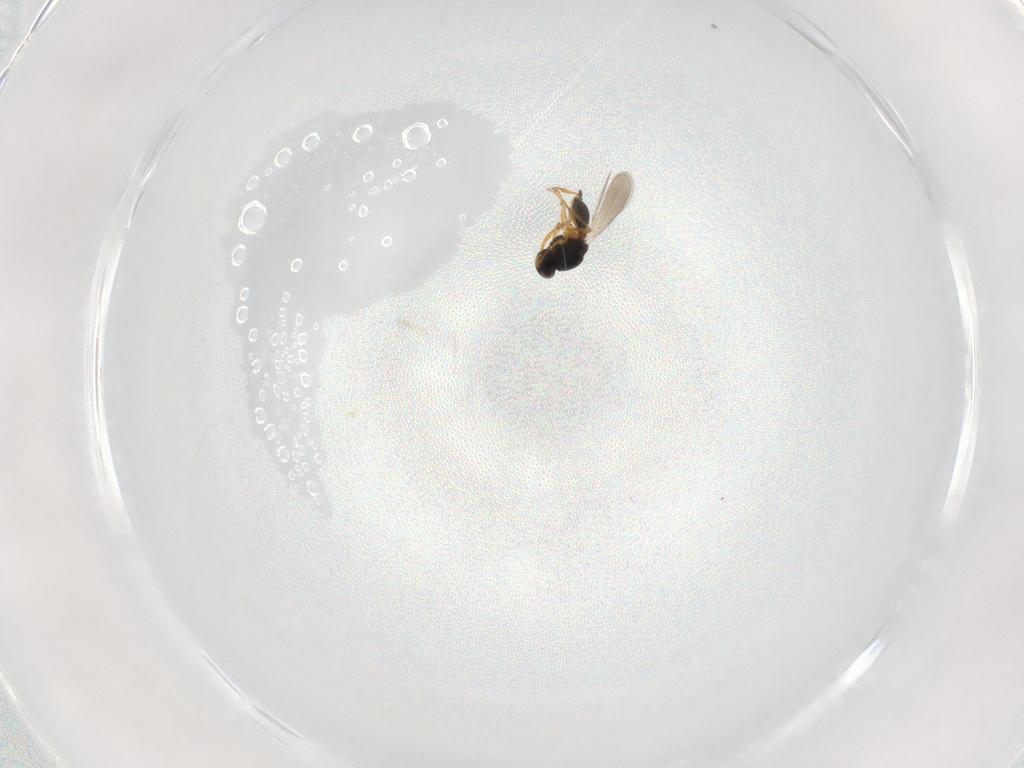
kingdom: Animalia
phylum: Arthropoda
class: Insecta
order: Hymenoptera
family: Platygastridae
